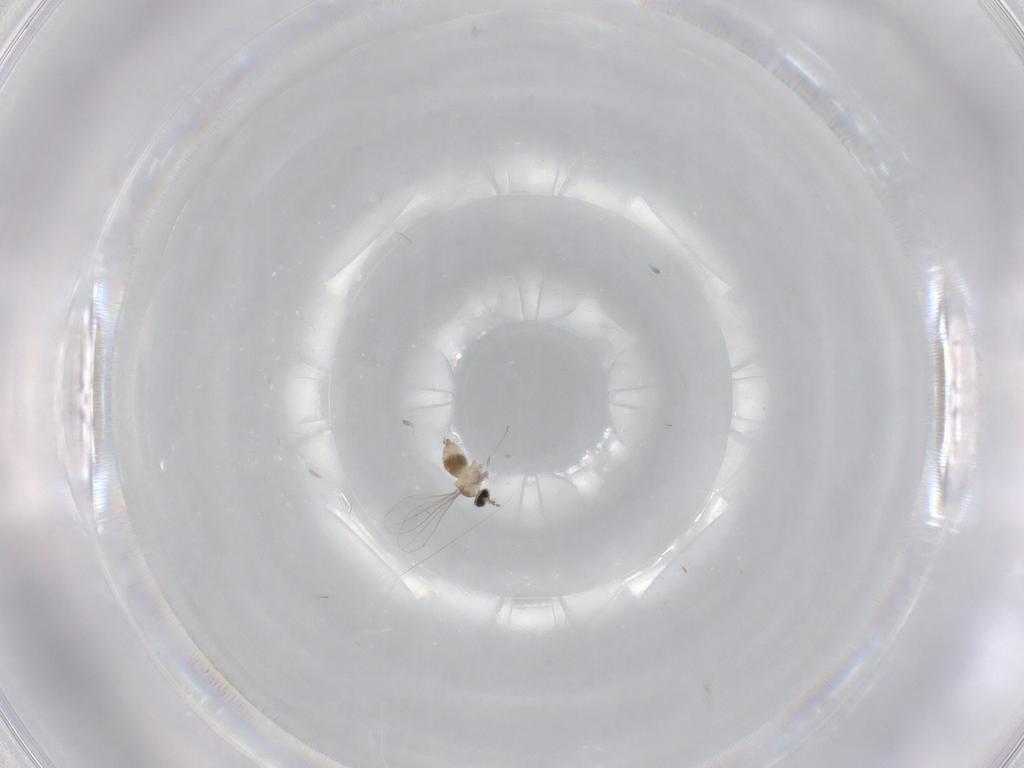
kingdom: Animalia
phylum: Arthropoda
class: Insecta
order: Diptera
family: Cecidomyiidae
